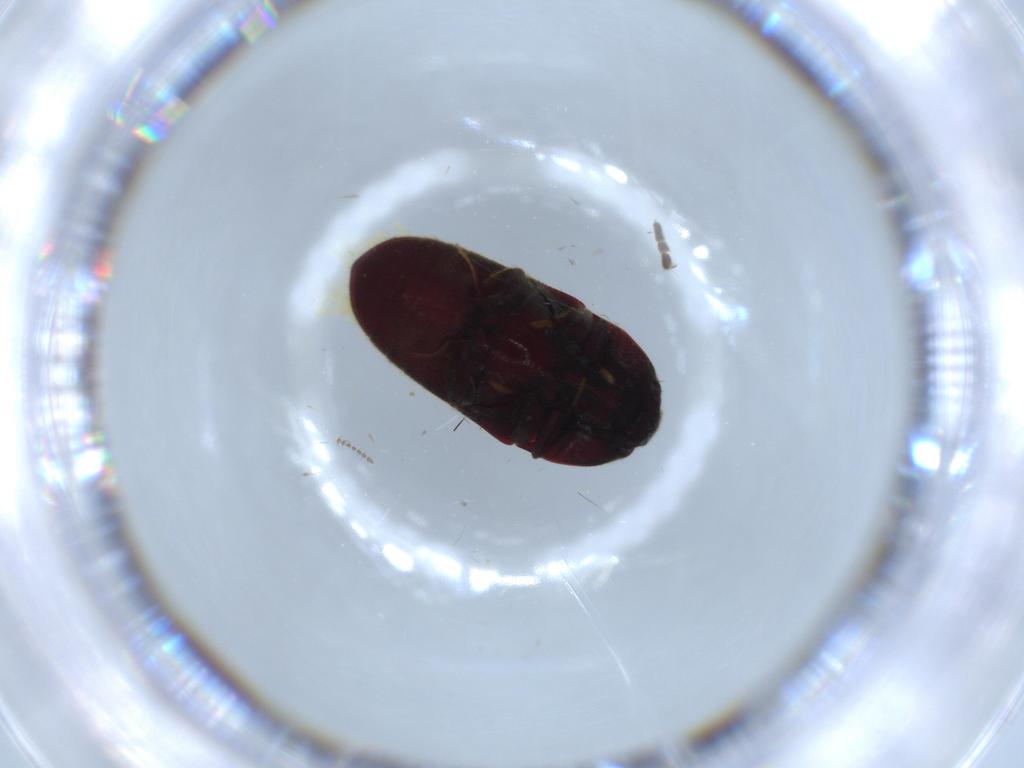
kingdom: Animalia
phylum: Arthropoda
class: Insecta
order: Coleoptera
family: Throscidae
